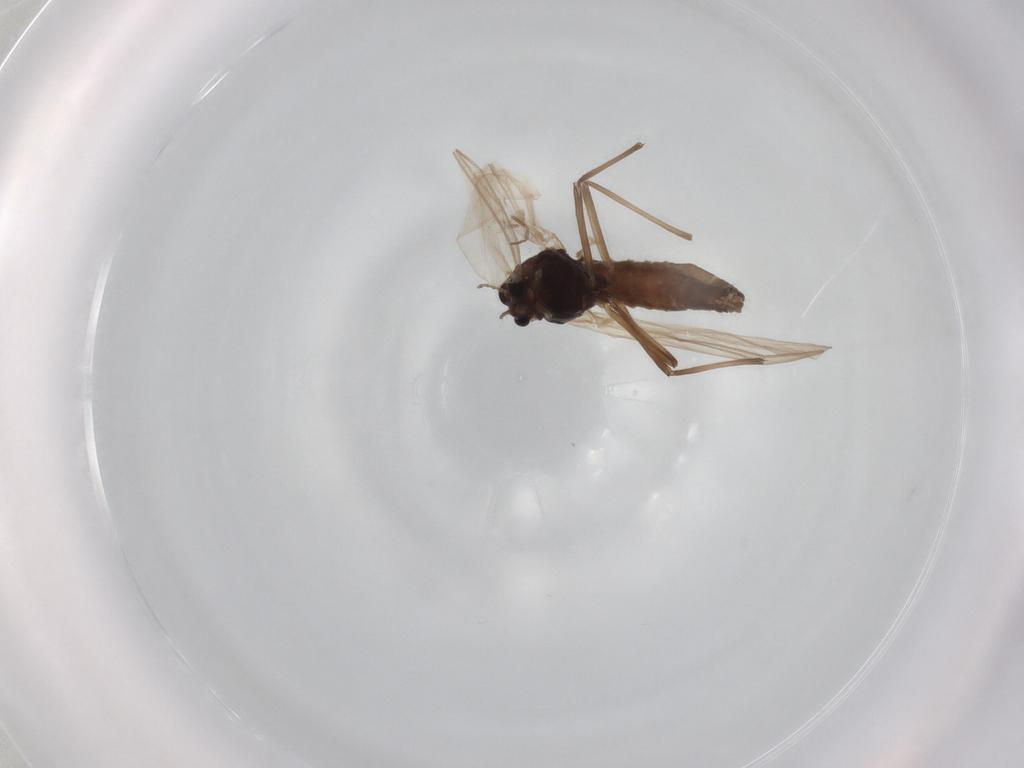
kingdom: Animalia
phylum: Arthropoda
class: Insecta
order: Diptera
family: Chironomidae
